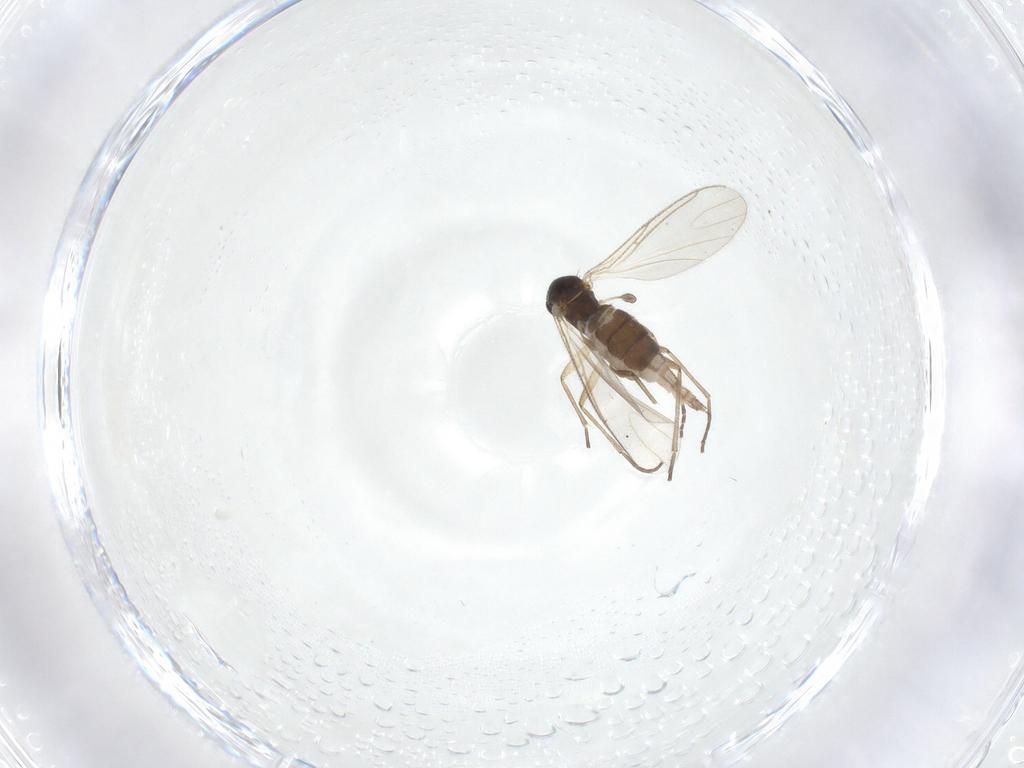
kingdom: Animalia
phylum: Arthropoda
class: Insecta
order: Diptera
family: Sciaridae
